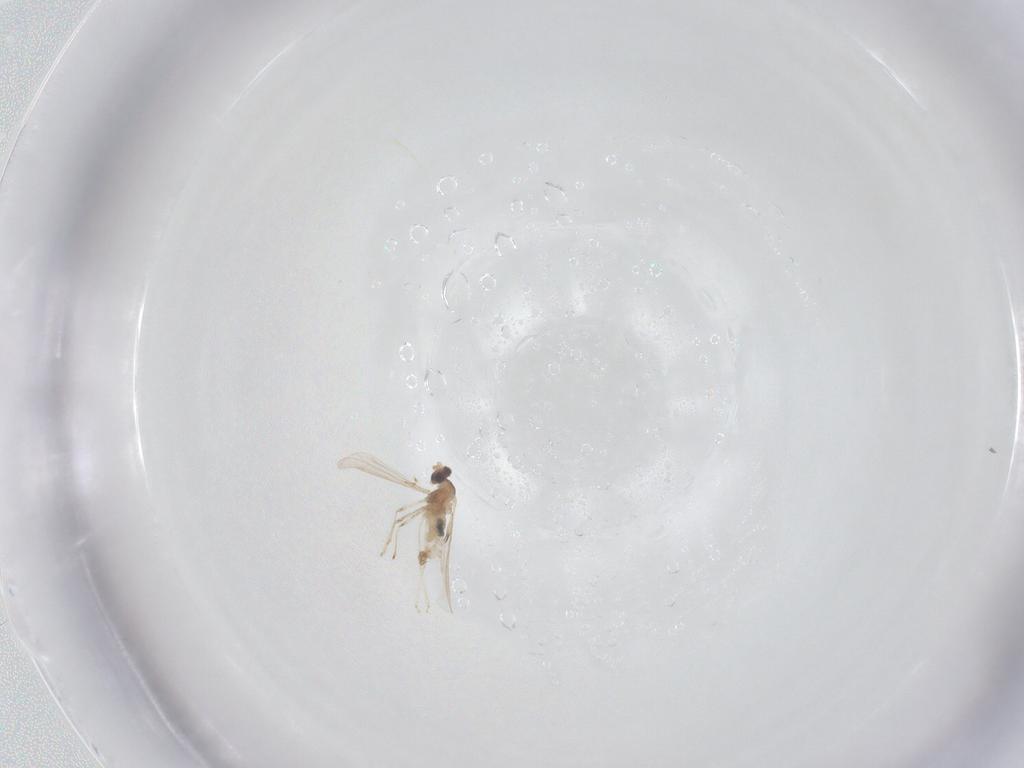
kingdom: Animalia
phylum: Arthropoda
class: Insecta
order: Diptera
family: Cecidomyiidae
